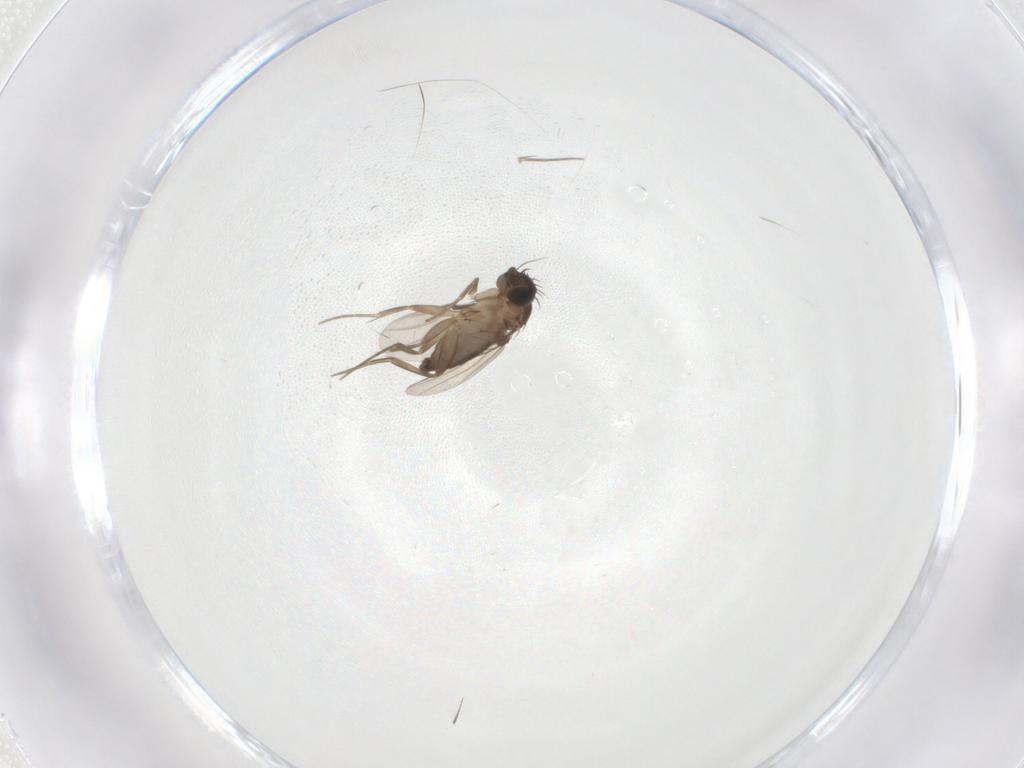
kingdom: Animalia
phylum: Arthropoda
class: Insecta
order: Diptera
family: Phoridae
